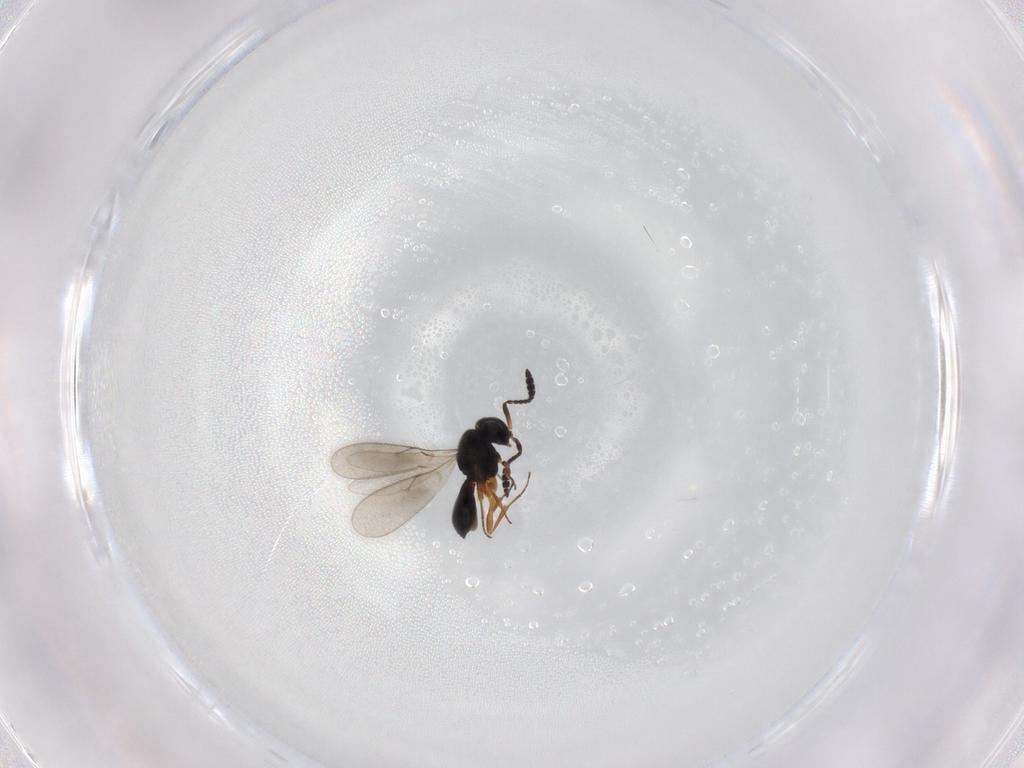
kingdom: Animalia
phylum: Arthropoda
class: Insecta
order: Hymenoptera
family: Scelionidae
